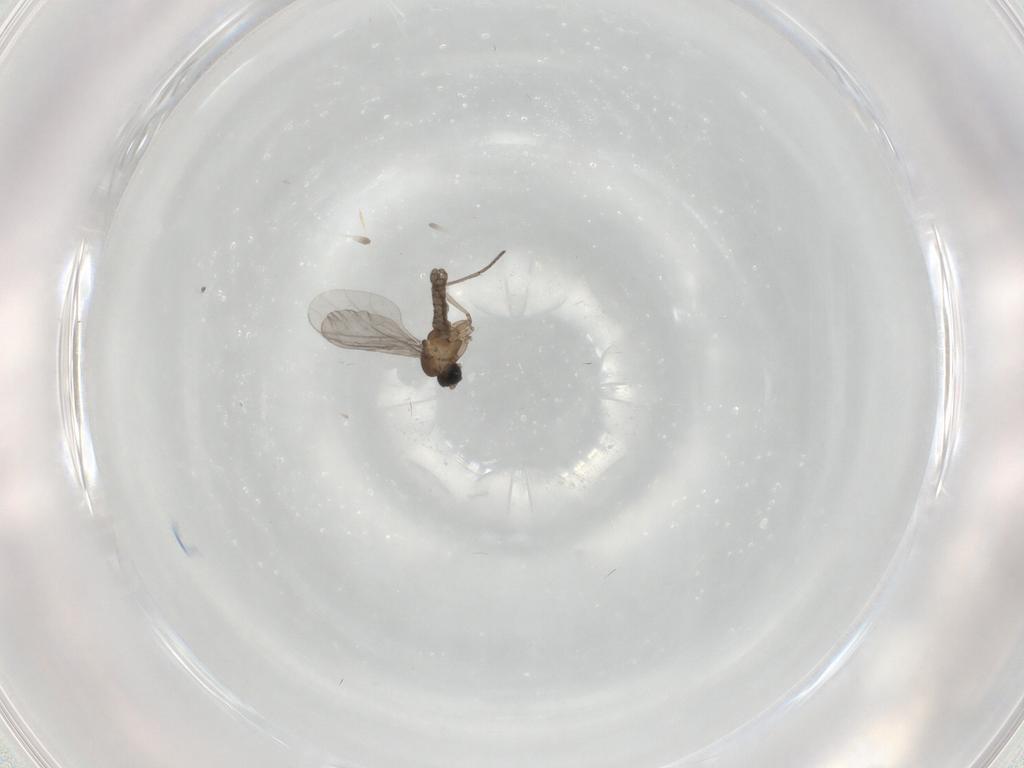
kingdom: Animalia
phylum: Arthropoda
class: Insecta
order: Diptera
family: Sciaridae
